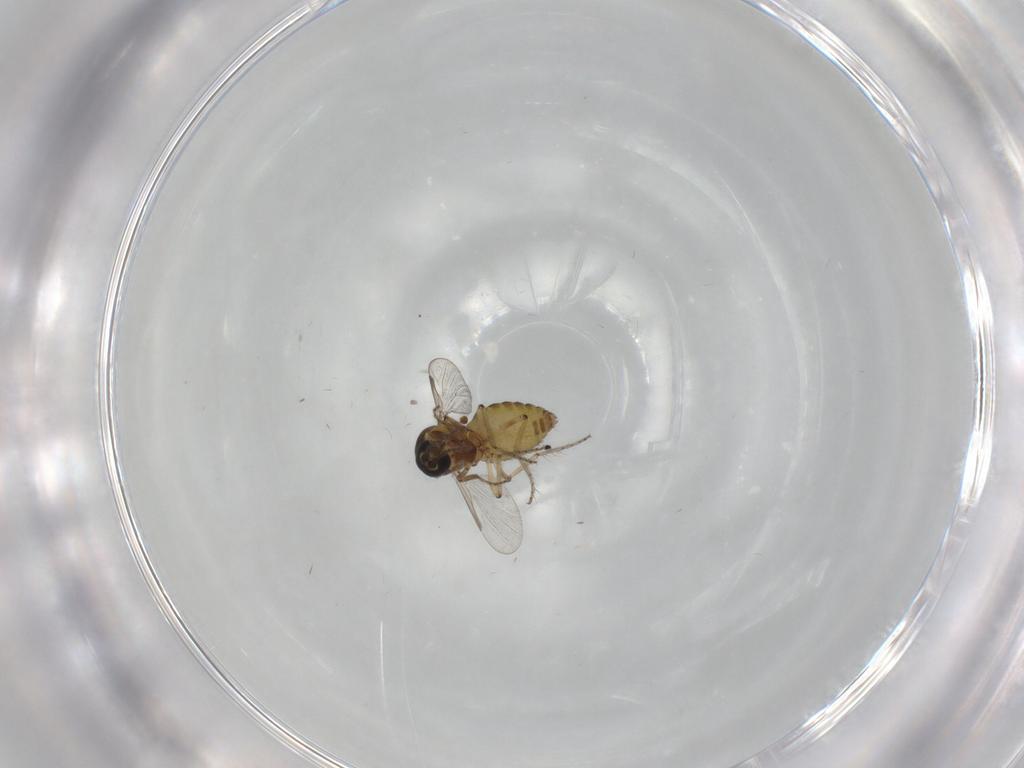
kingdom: Animalia
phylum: Arthropoda
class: Insecta
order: Diptera
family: Ceratopogonidae
